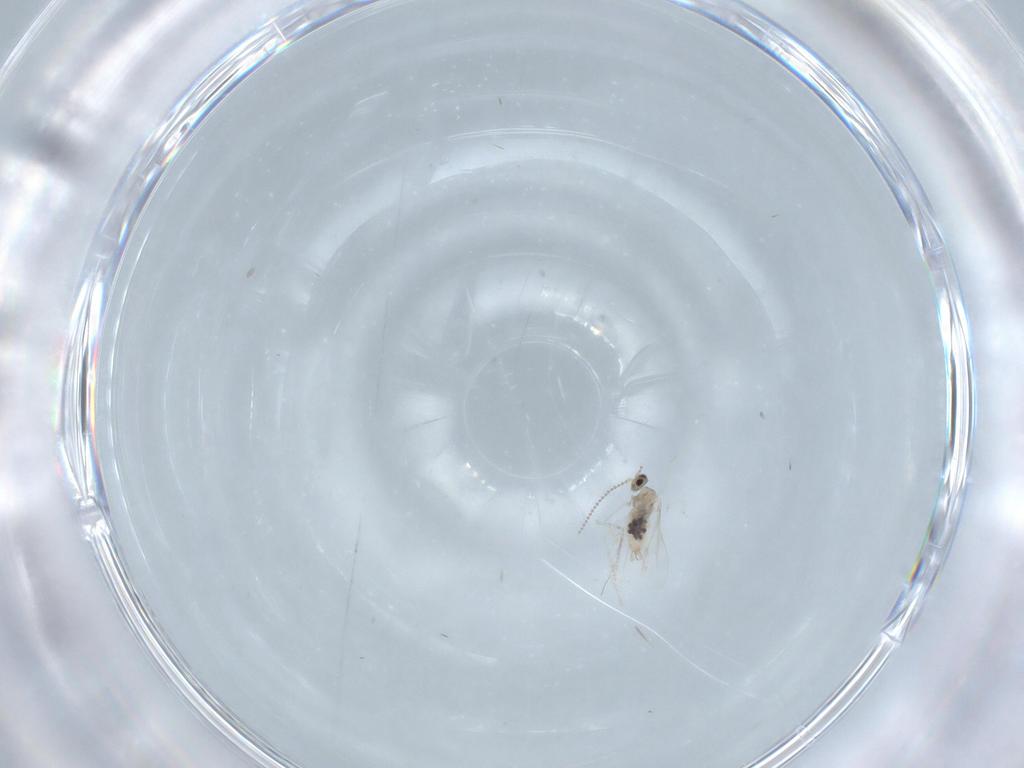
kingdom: Animalia
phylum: Arthropoda
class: Insecta
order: Diptera
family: Cecidomyiidae
